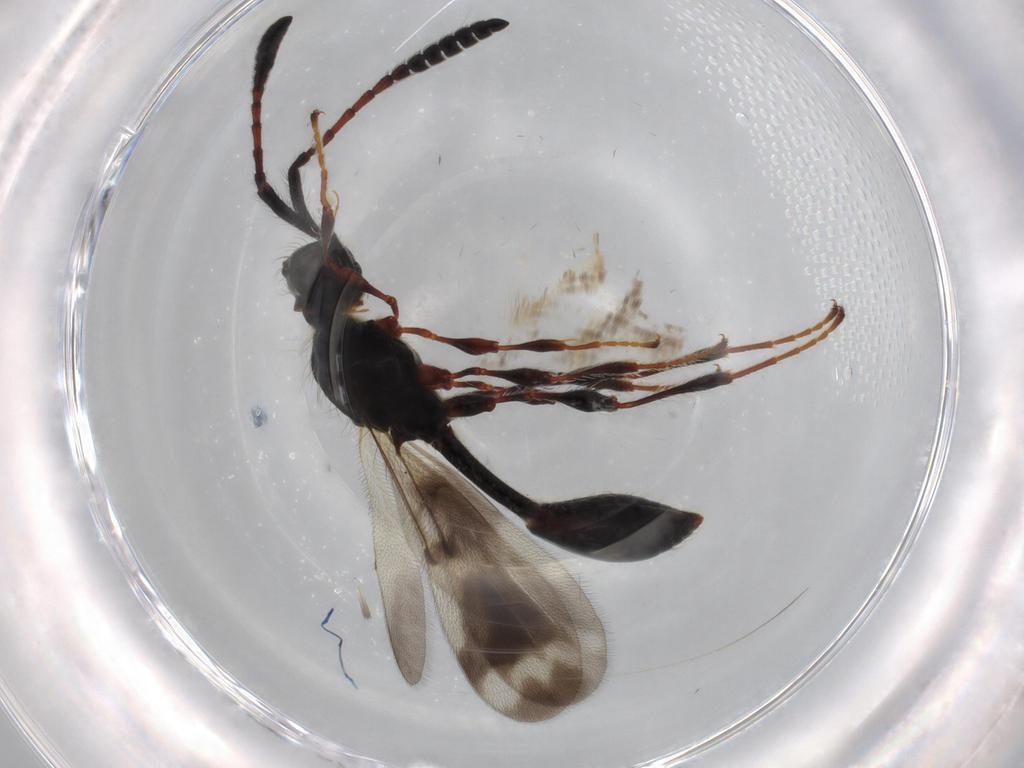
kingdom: Animalia
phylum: Arthropoda
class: Insecta
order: Hymenoptera
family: Diapriidae
